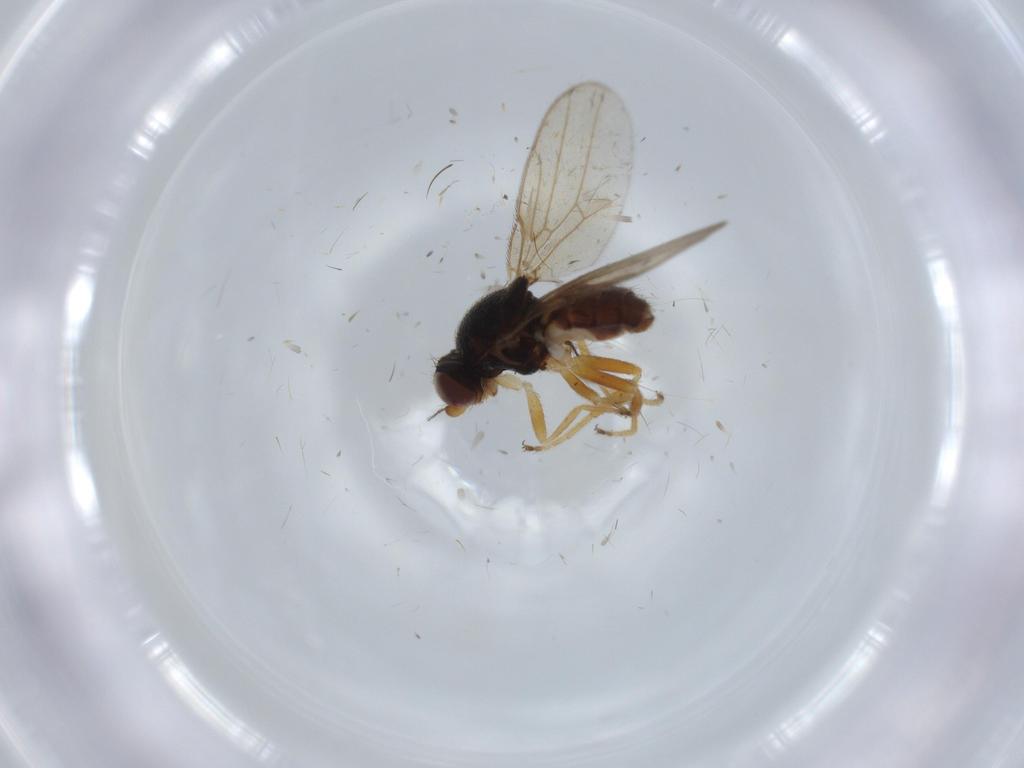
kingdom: Animalia
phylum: Arthropoda
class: Insecta
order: Diptera
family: Chloropidae
